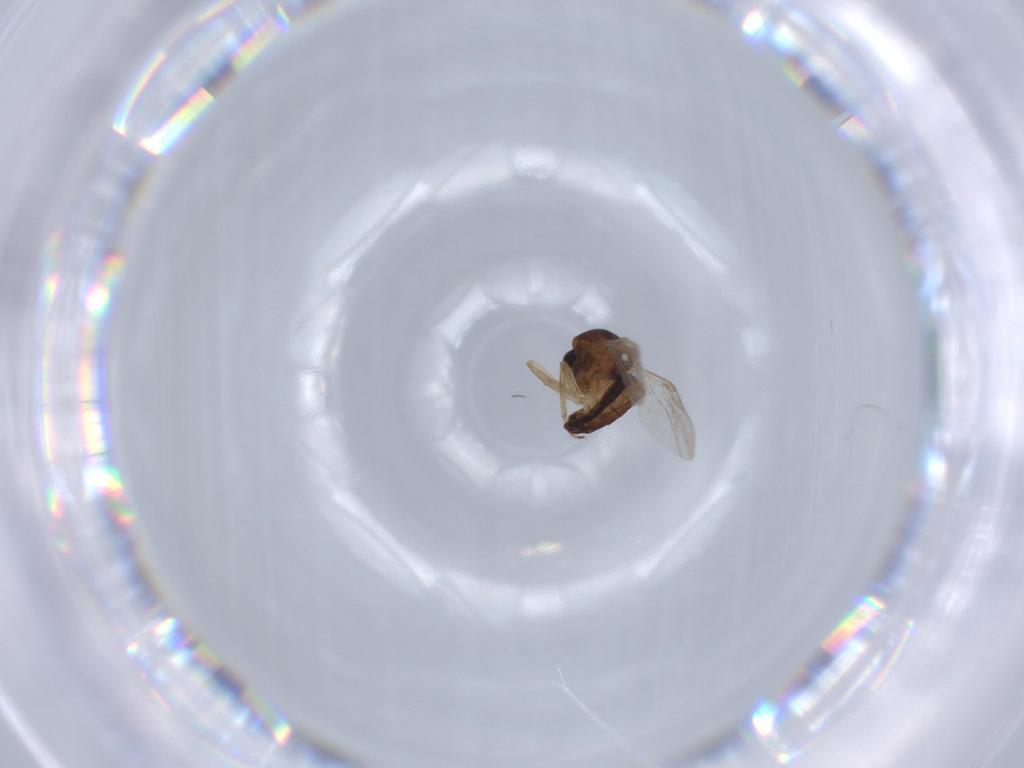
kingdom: Animalia
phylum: Arthropoda
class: Insecta
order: Diptera
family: Ceratopogonidae
